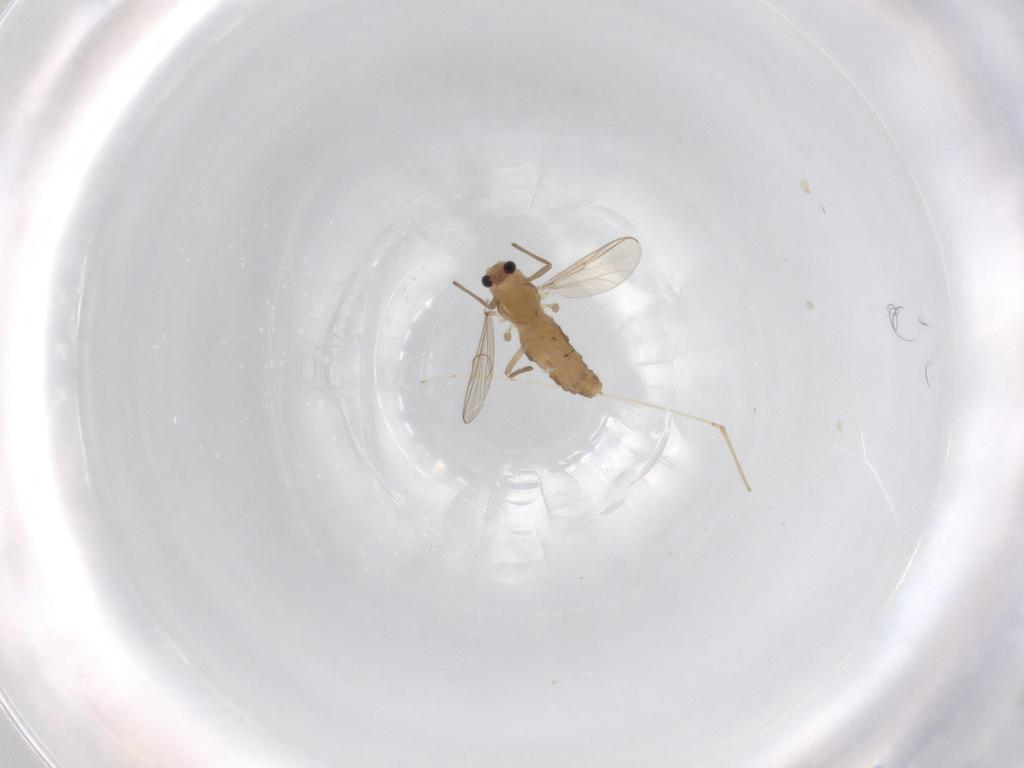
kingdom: Animalia
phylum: Arthropoda
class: Insecta
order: Diptera
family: Chironomidae
